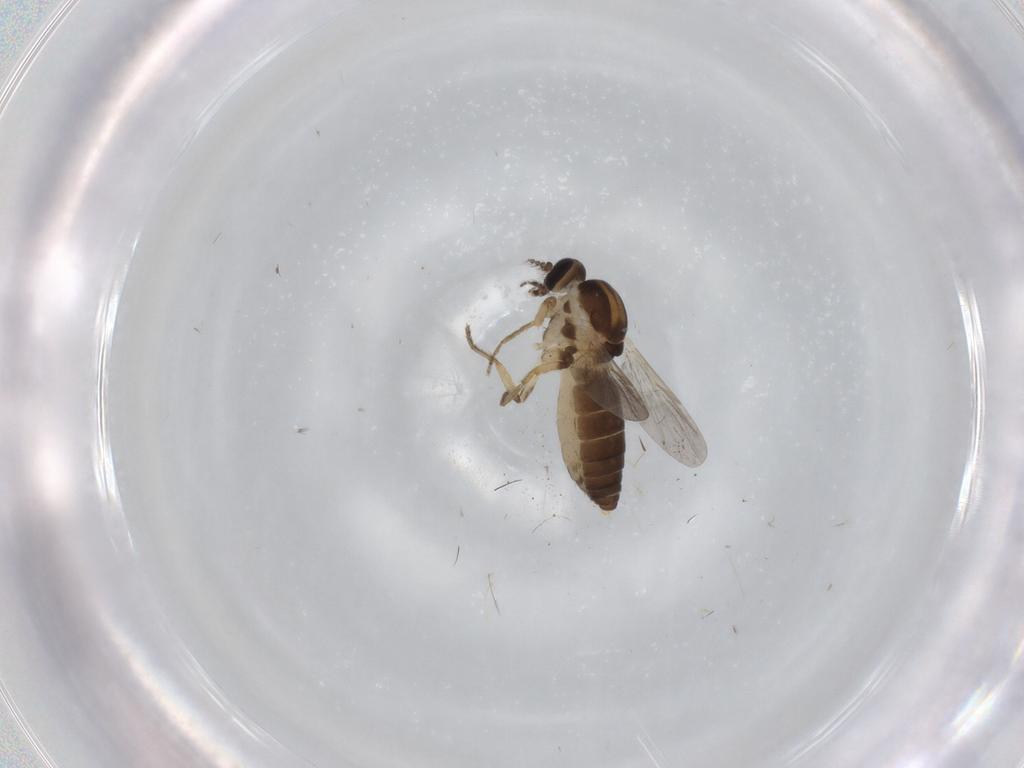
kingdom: Animalia
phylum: Arthropoda
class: Insecta
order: Diptera
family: Ceratopogonidae
